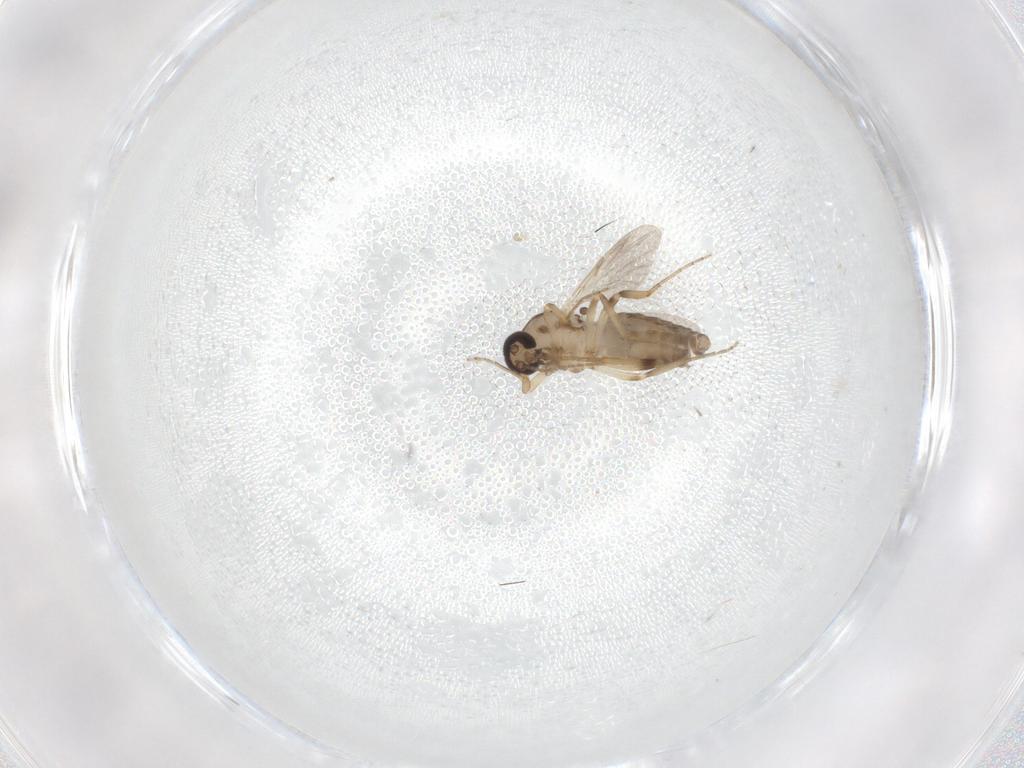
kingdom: Animalia
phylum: Arthropoda
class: Insecta
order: Diptera
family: Ceratopogonidae
